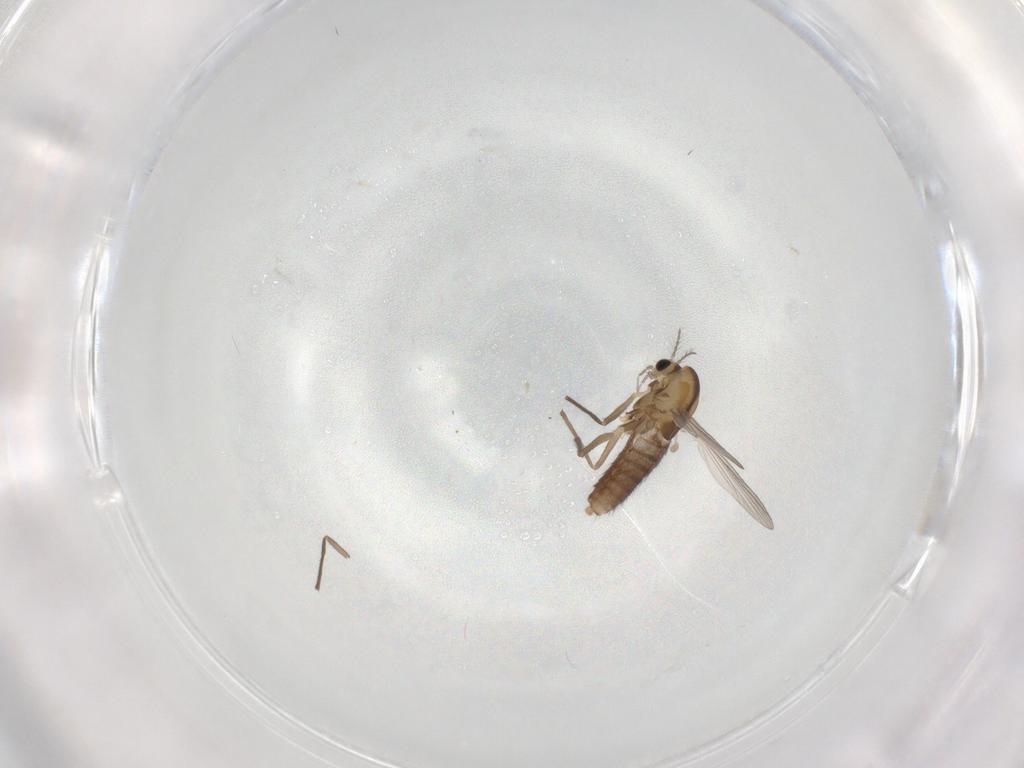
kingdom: Animalia
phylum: Arthropoda
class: Insecta
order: Diptera
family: Chironomidae
